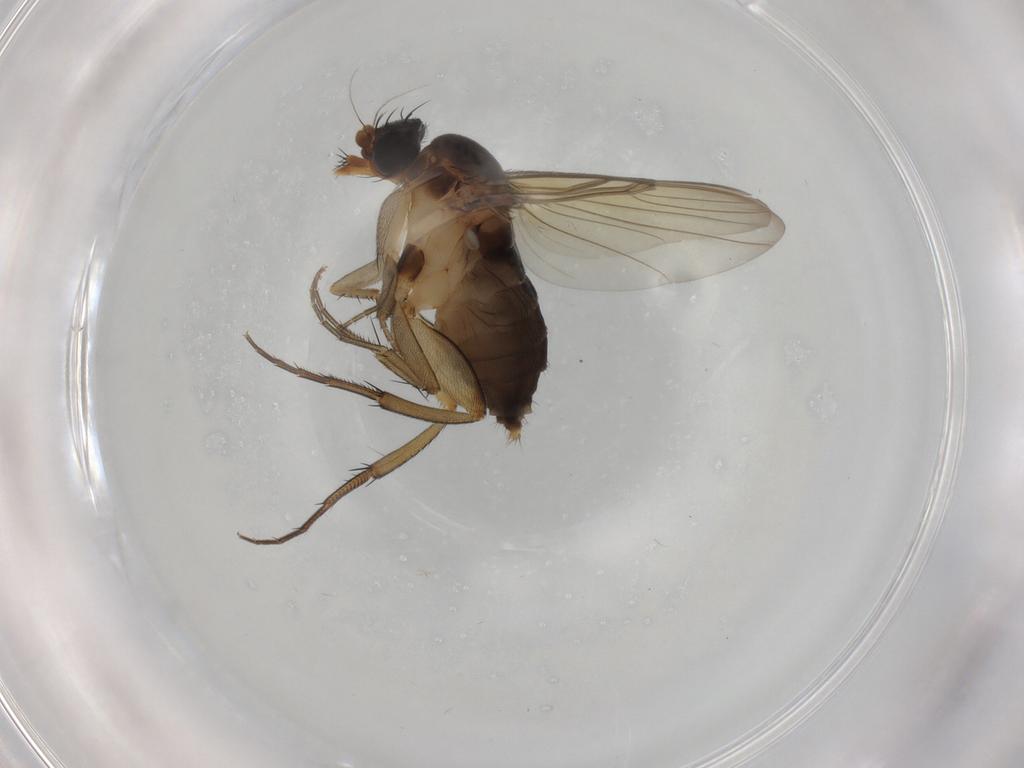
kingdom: Animalia
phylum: Arthropoda
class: Insecta
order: Diptera
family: Phoridae
